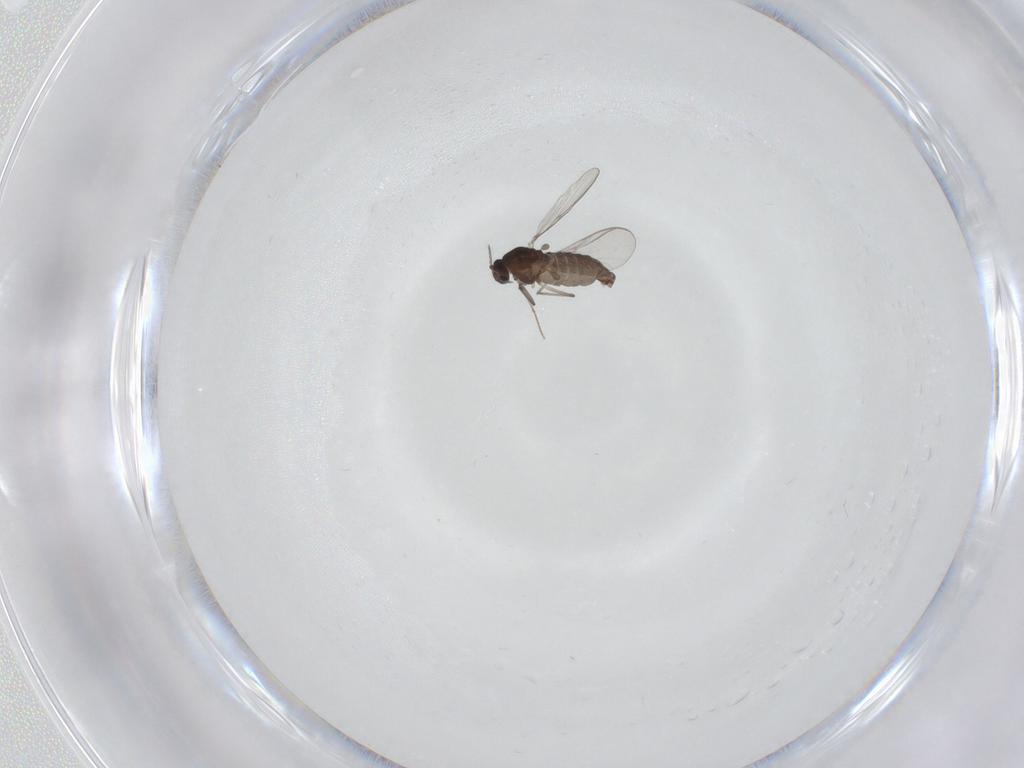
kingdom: Animalia
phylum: Arthropoda
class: Insecta
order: Diptera
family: Chironomidae
